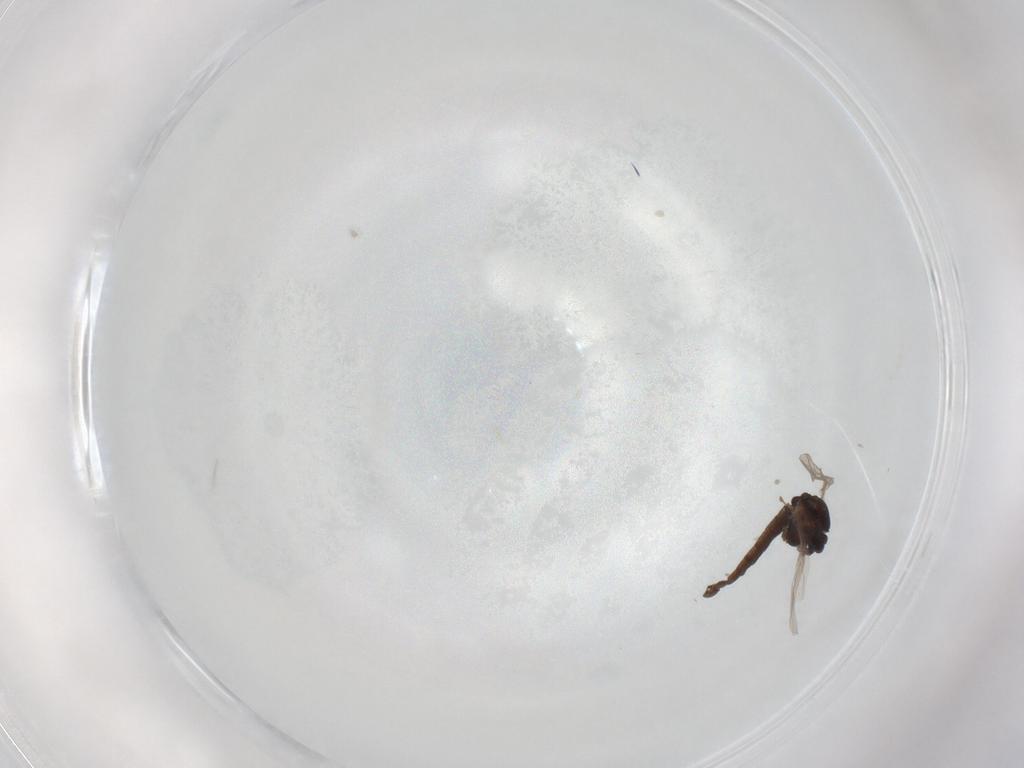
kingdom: Animalia
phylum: Arthropoda
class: Insecta
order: Diptera
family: Chironomidae
